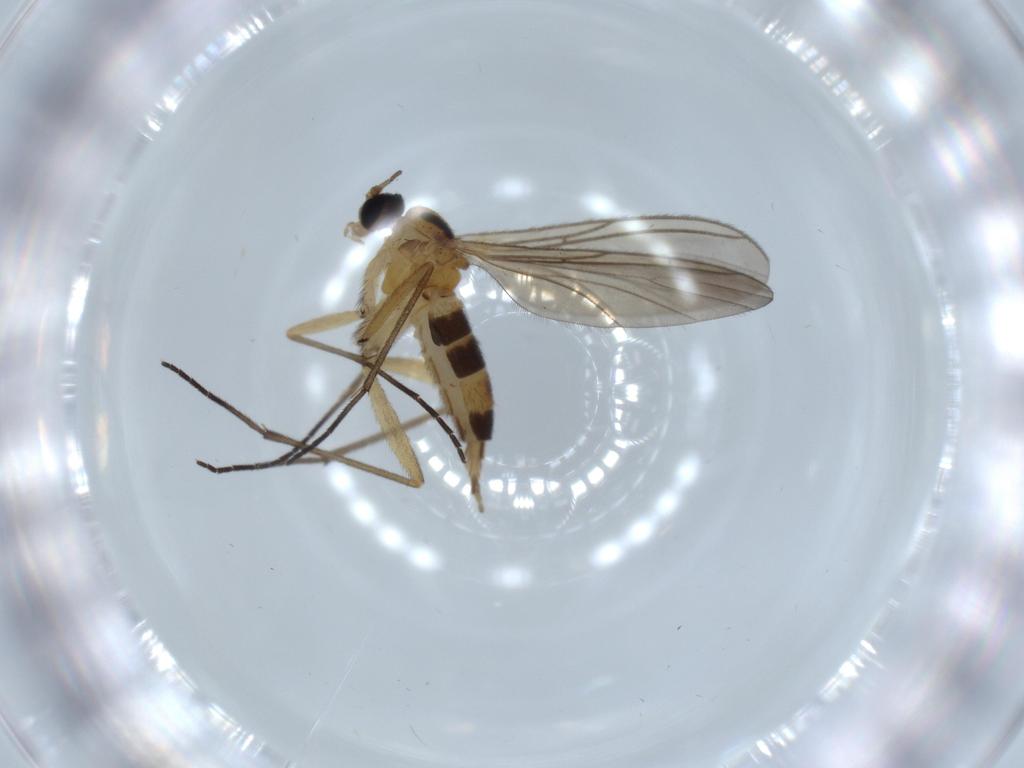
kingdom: Animalia
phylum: Arthropoda
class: Insecta
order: Diptera
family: Sciaridae
